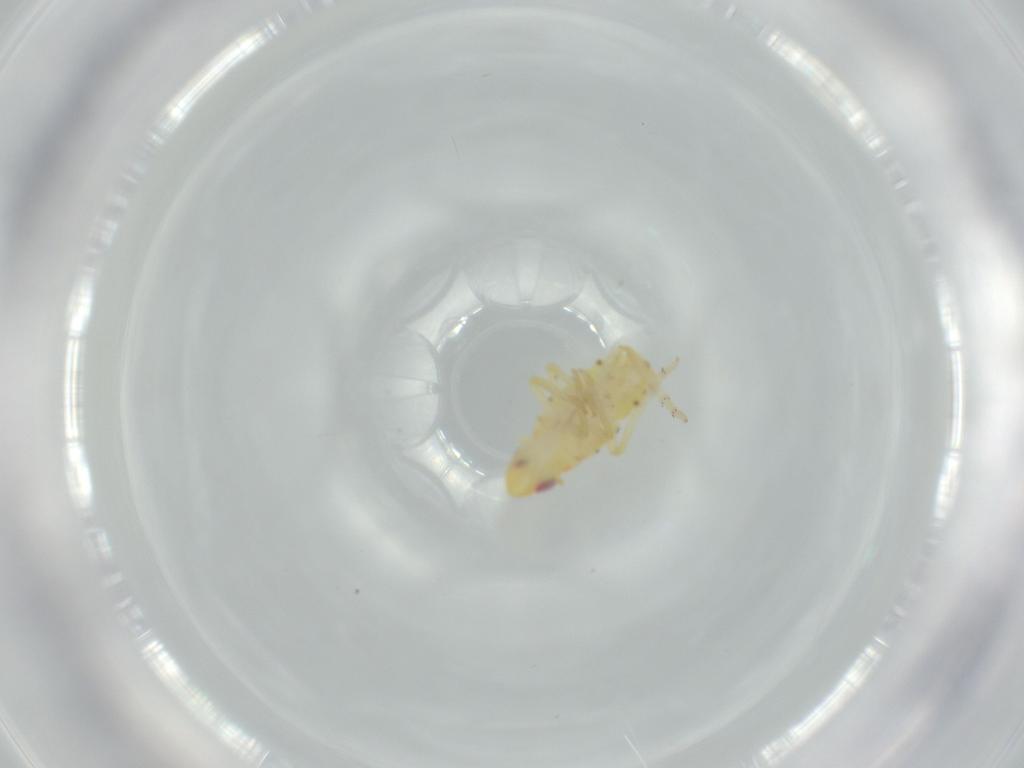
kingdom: Animalia
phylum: Arthropoda
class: Insecta
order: Hemiptera
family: Tropiduchidae
